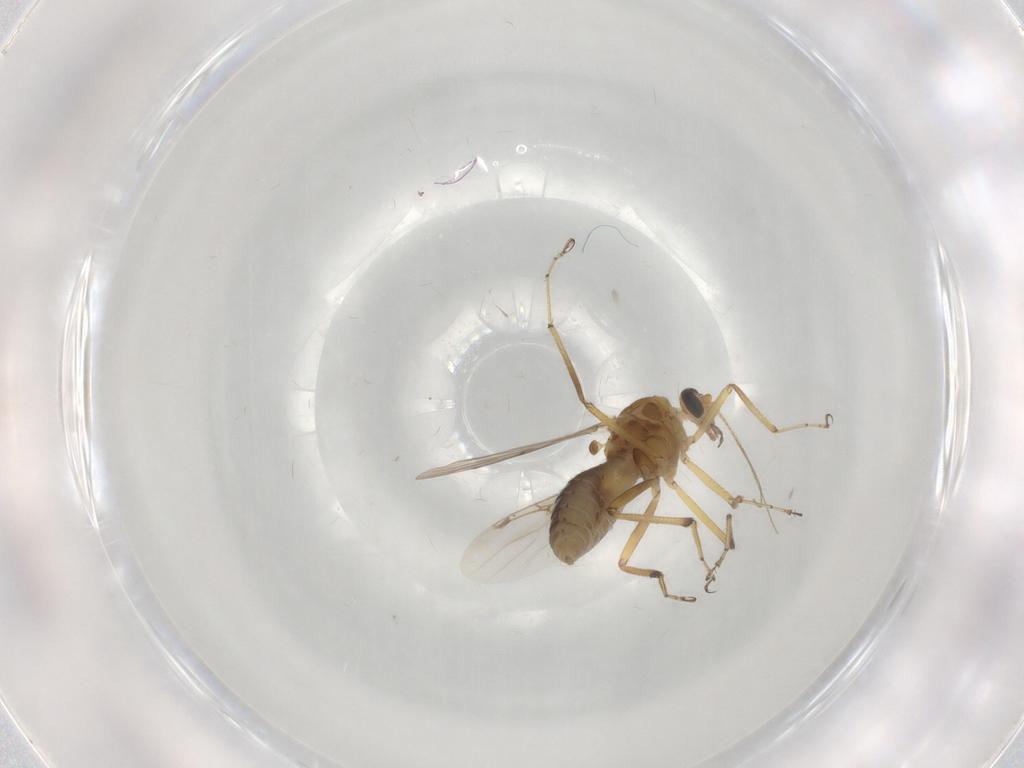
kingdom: Animalia
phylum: Arthropoda
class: Insecta
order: Diptera
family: Ceratopogonidae
